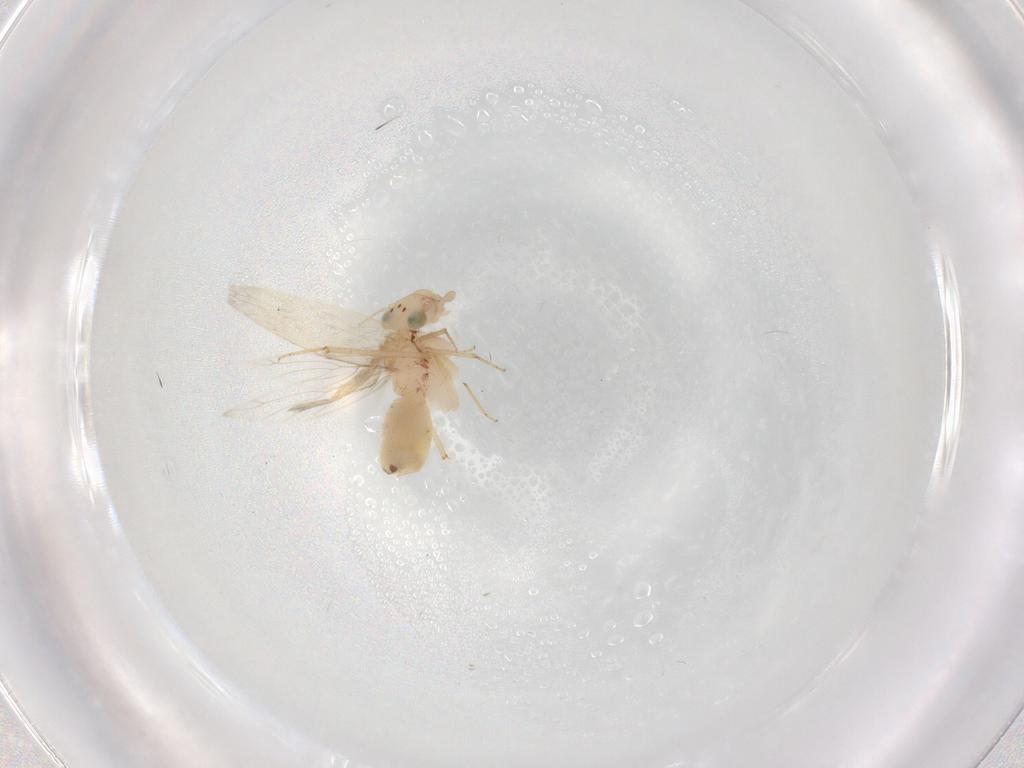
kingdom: Animalia
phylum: Arthropoda
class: Insecta
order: Psocodea
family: Lepidopsocidae
